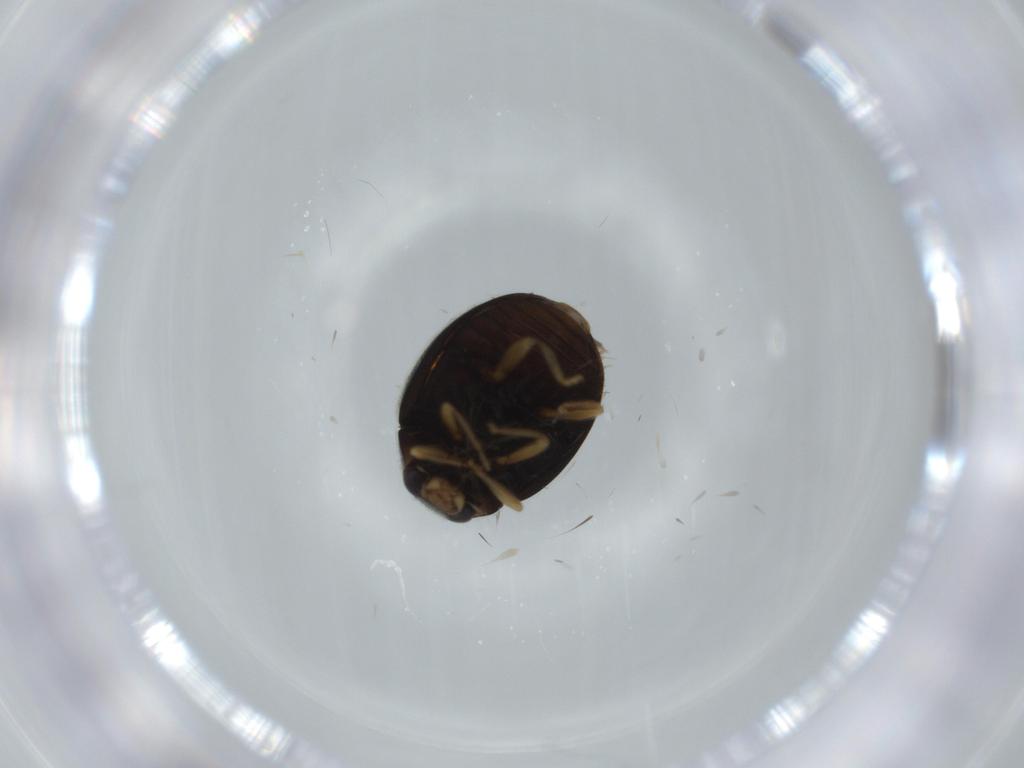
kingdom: Animalia
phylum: Arthropoda
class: Insecta
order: Coleoptera
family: Coccinellidae
